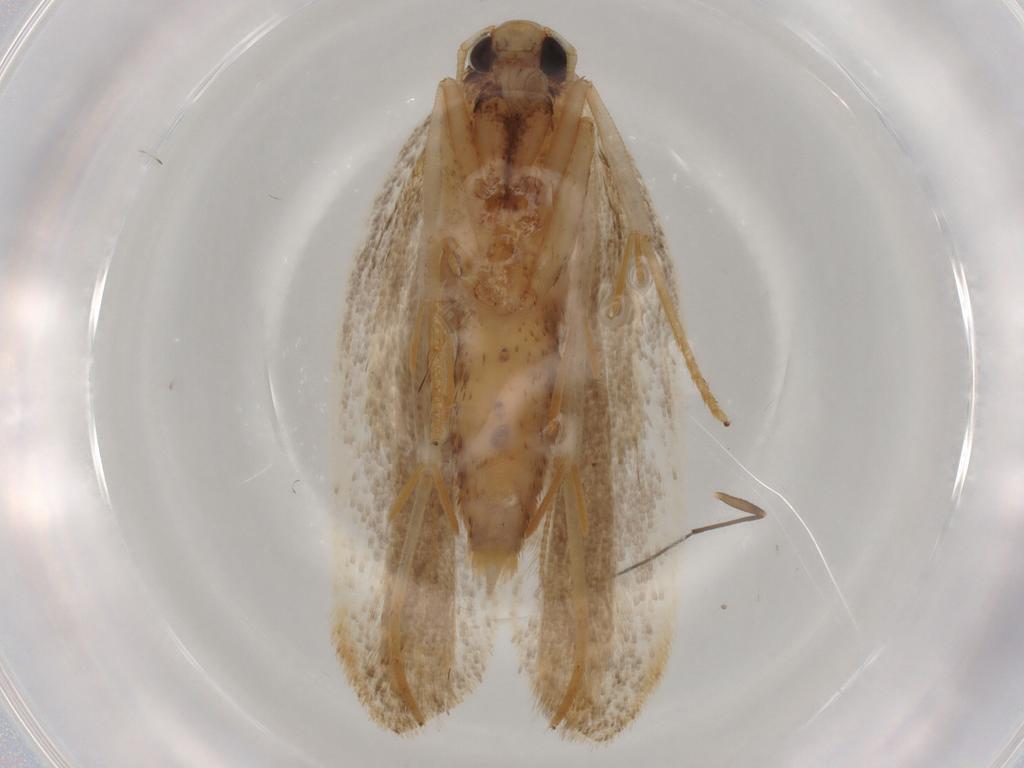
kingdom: Animalia
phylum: Arthropoda
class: Insecta
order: Lepidoptera
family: Gelechiidae
